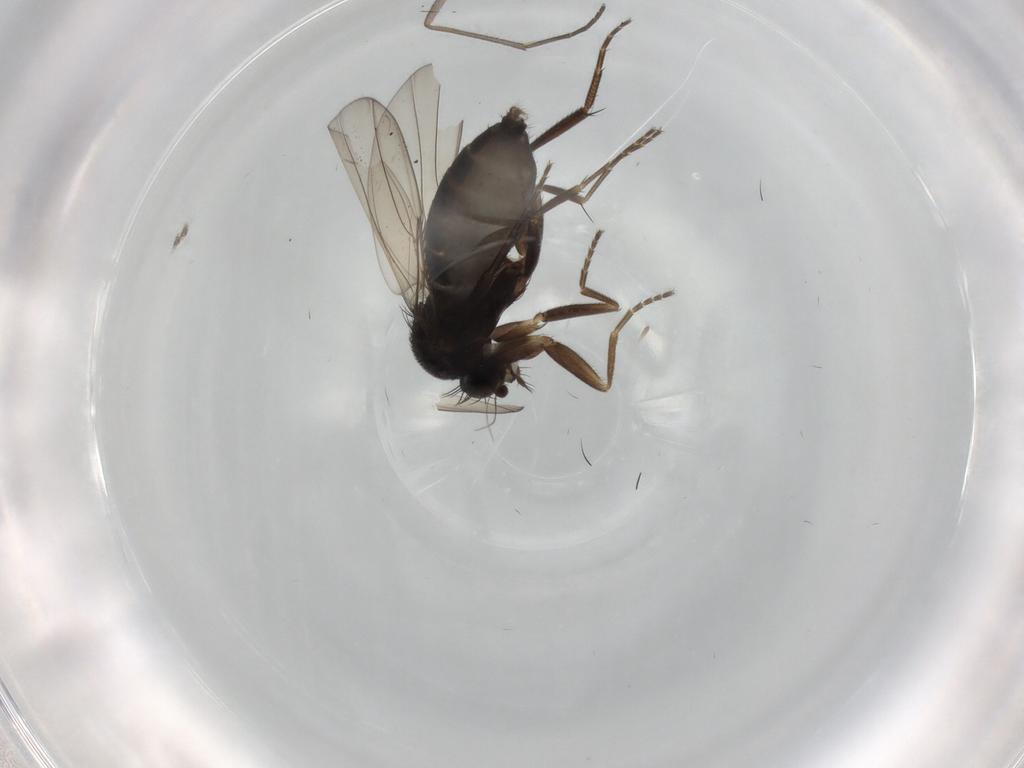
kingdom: Animalia
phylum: Arthropoda
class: Insecta
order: Diptera
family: Phoridae
